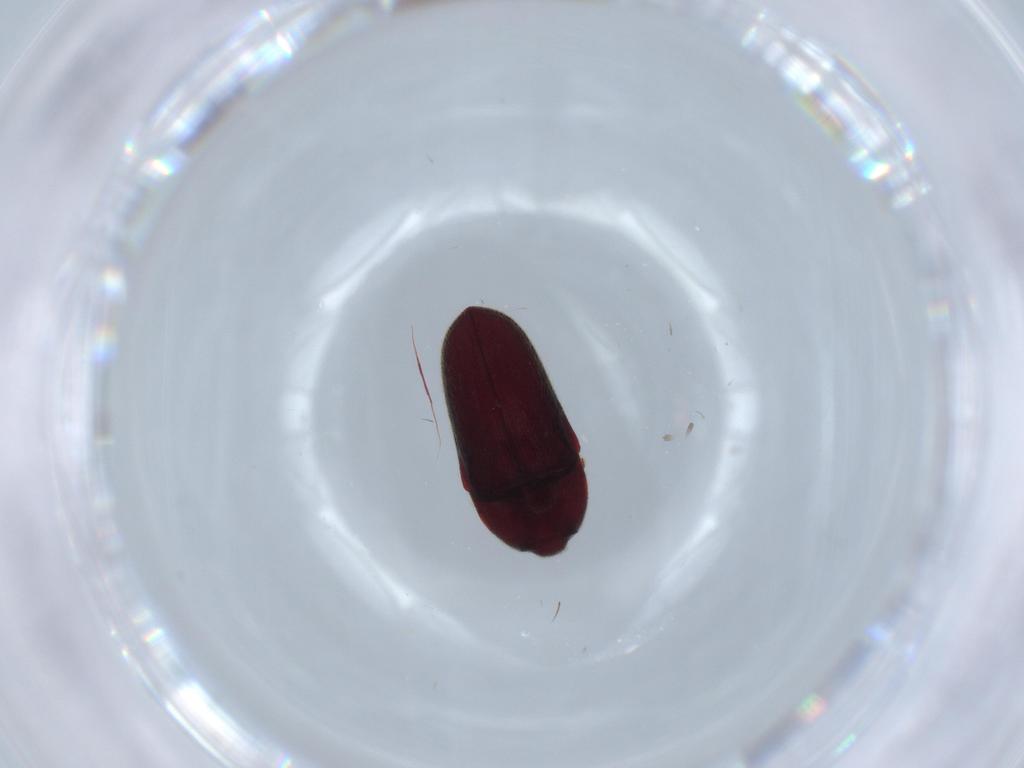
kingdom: Animalia
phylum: Arthropoda
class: Insecta
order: Coleoptera
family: Throscidae
